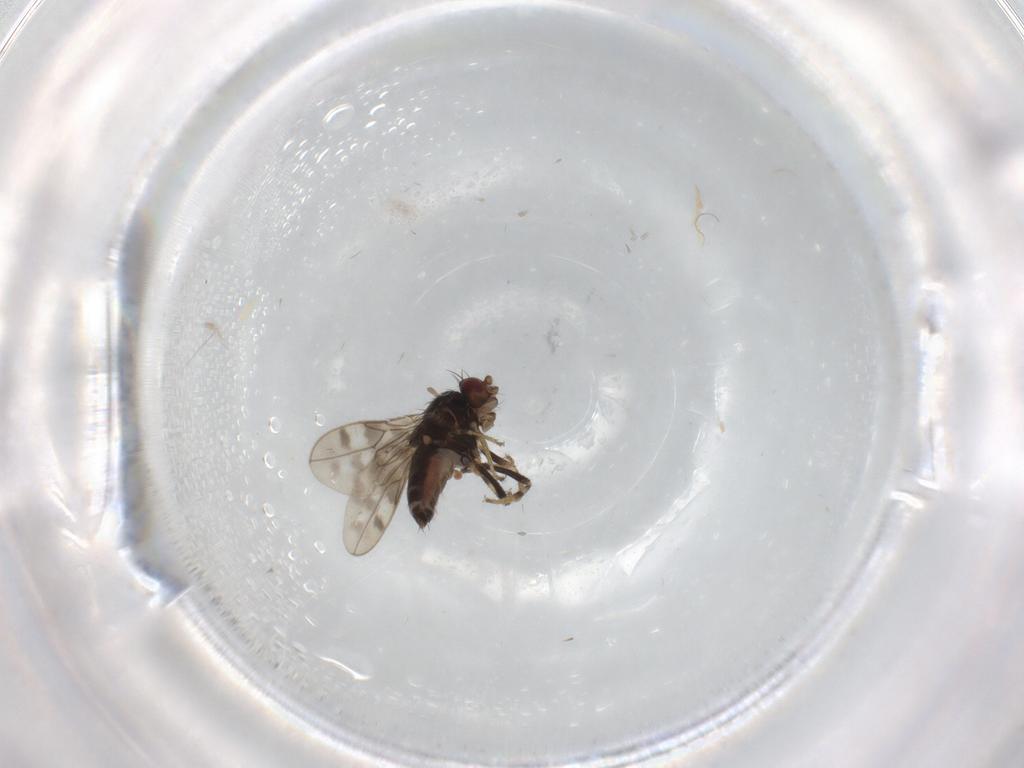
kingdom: Animalia
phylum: Arthropoda
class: Insecta
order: Diptera
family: Sphaeroceridae
